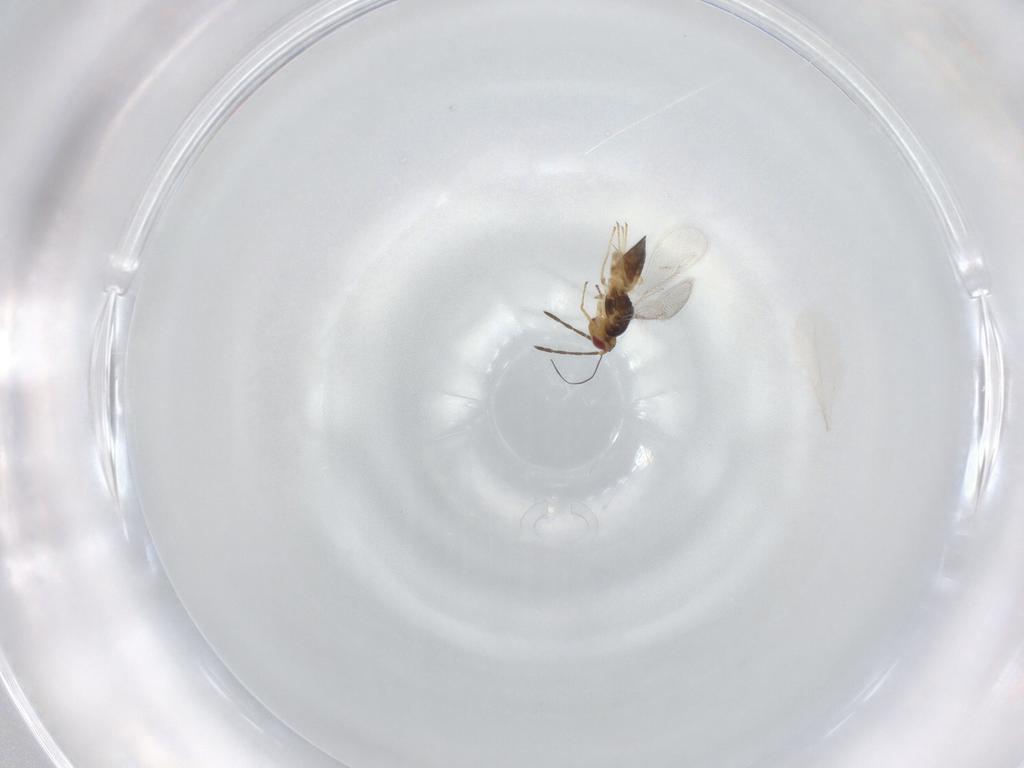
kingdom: Animalia
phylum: Arthropoda
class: Insecta
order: Hymenoptera
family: Eulophidae
